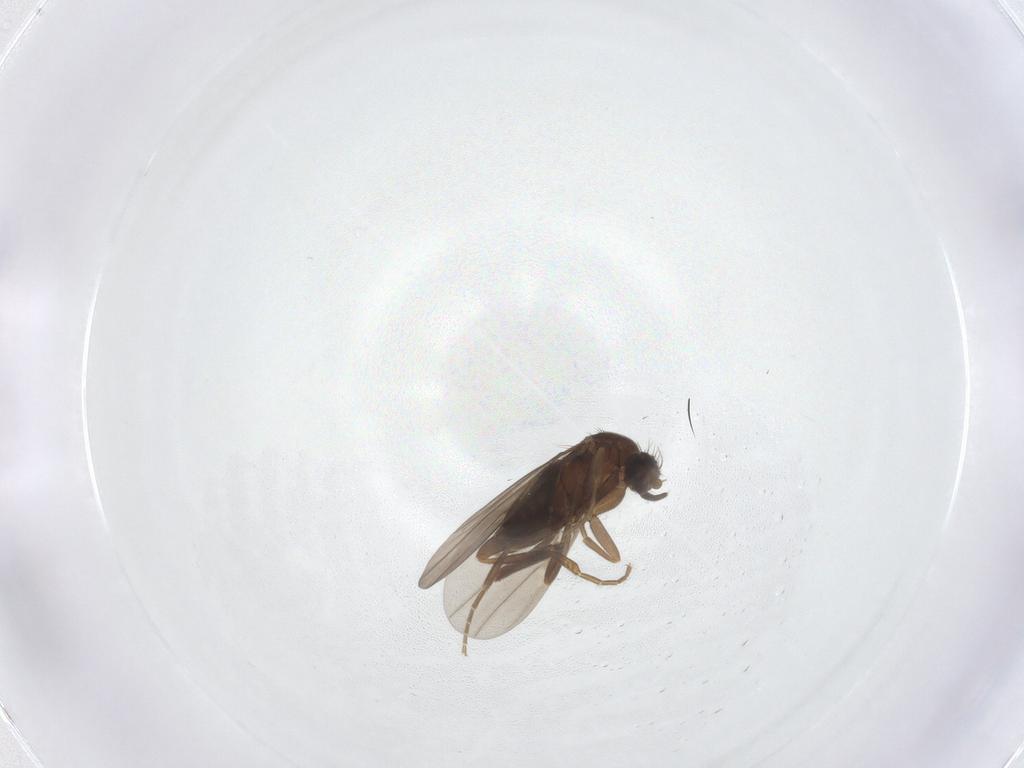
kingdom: Animalia
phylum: Arthropoda
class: Insecta
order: Diptera
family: Phoridae
